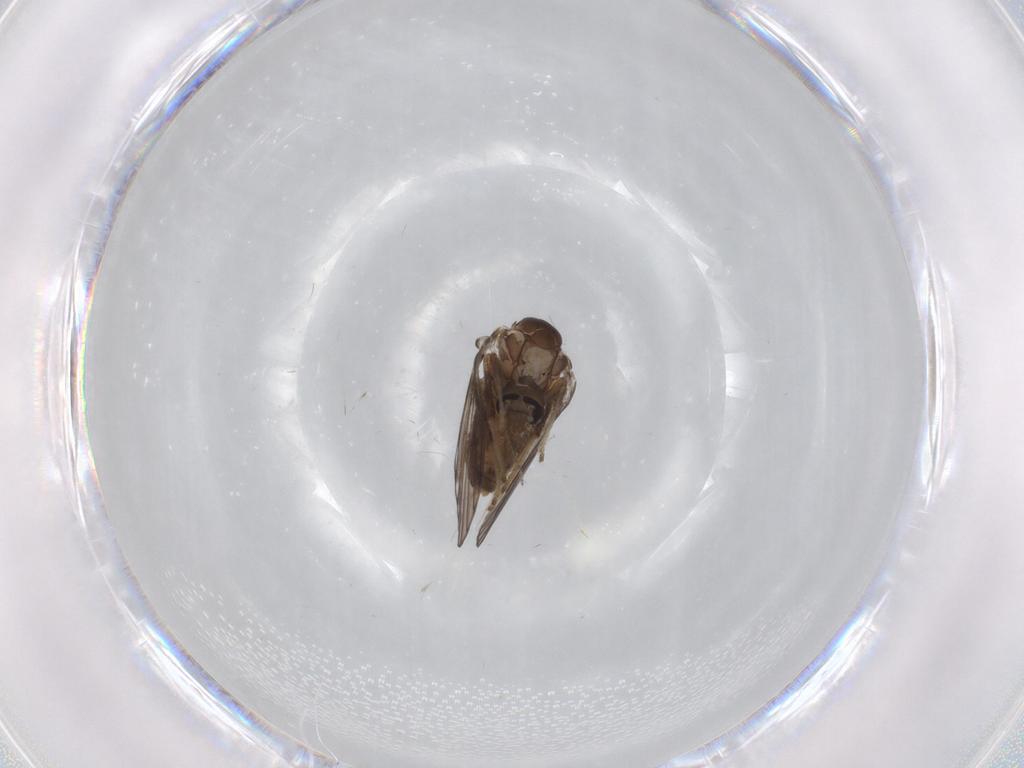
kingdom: Animalia
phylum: Arthropoda
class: Insecta
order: Diptera
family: Psychodidae
